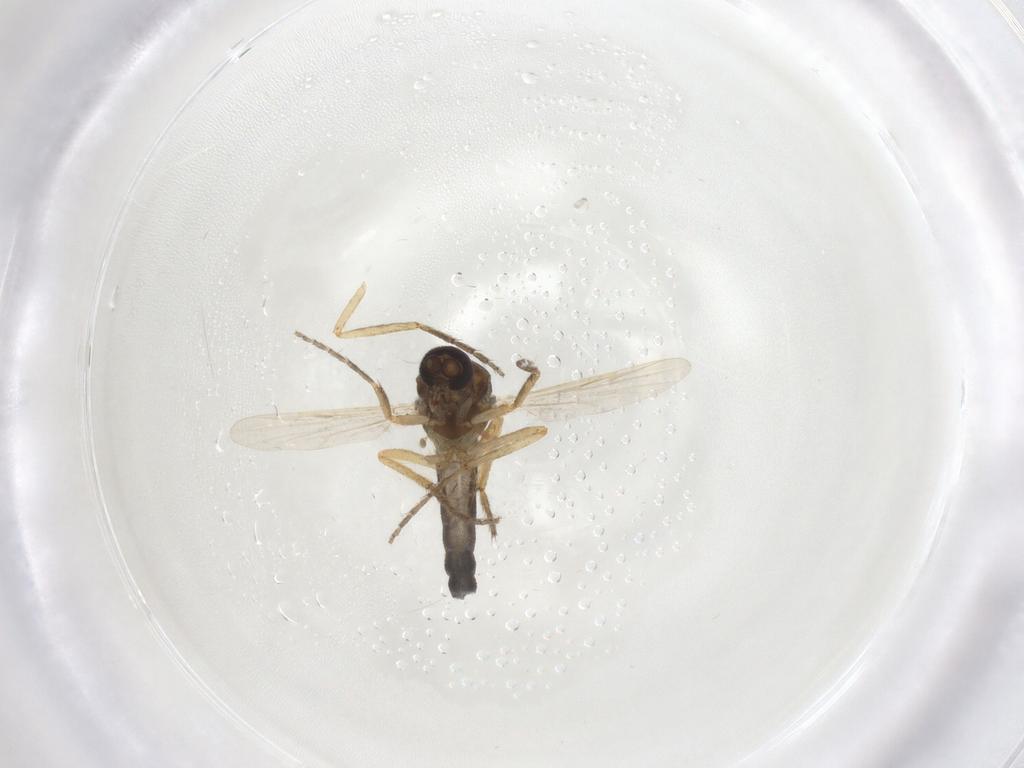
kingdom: Animalia
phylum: Arthropoda
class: Insecta
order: Diptera
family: Ceratopogonidae
